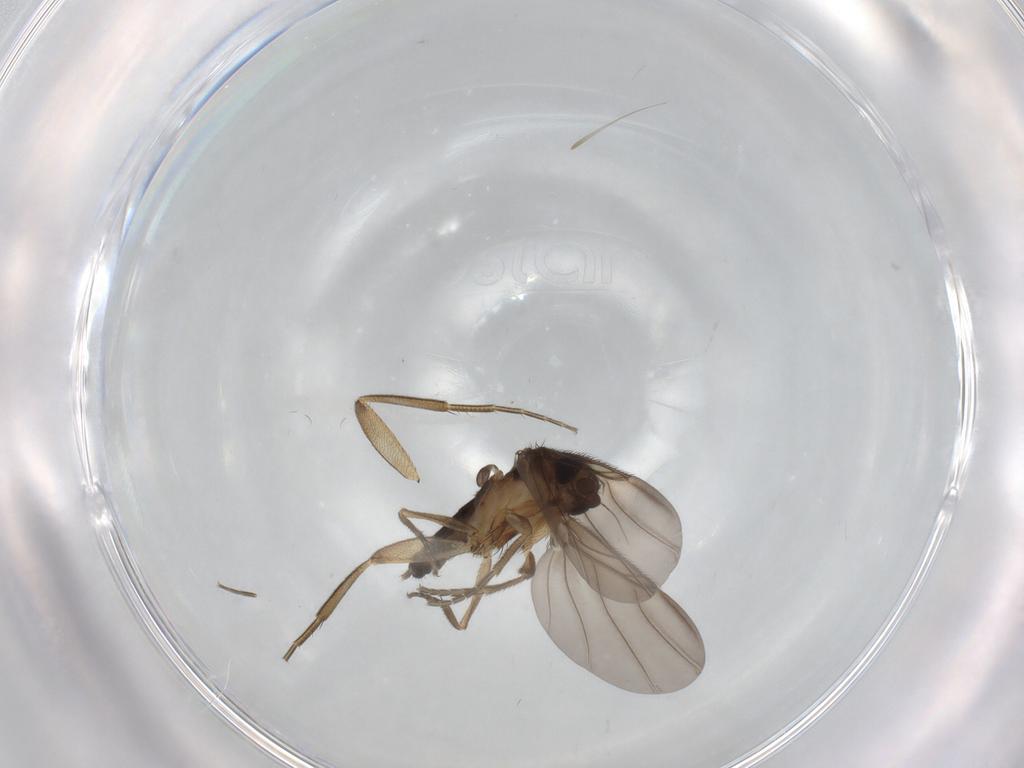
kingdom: Animalia
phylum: Arthropoda
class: Insecta
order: Diptera
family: Phoridae
